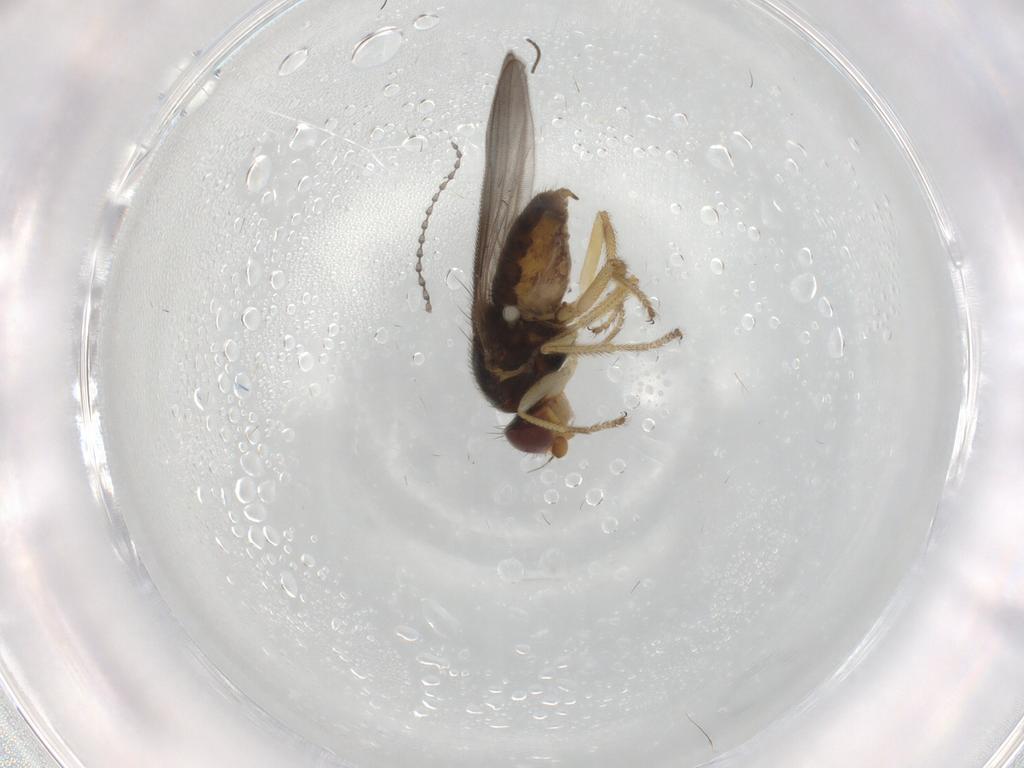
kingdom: Animalia
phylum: Arthropoda
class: Insecta
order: Diptera
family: Chloropidae
